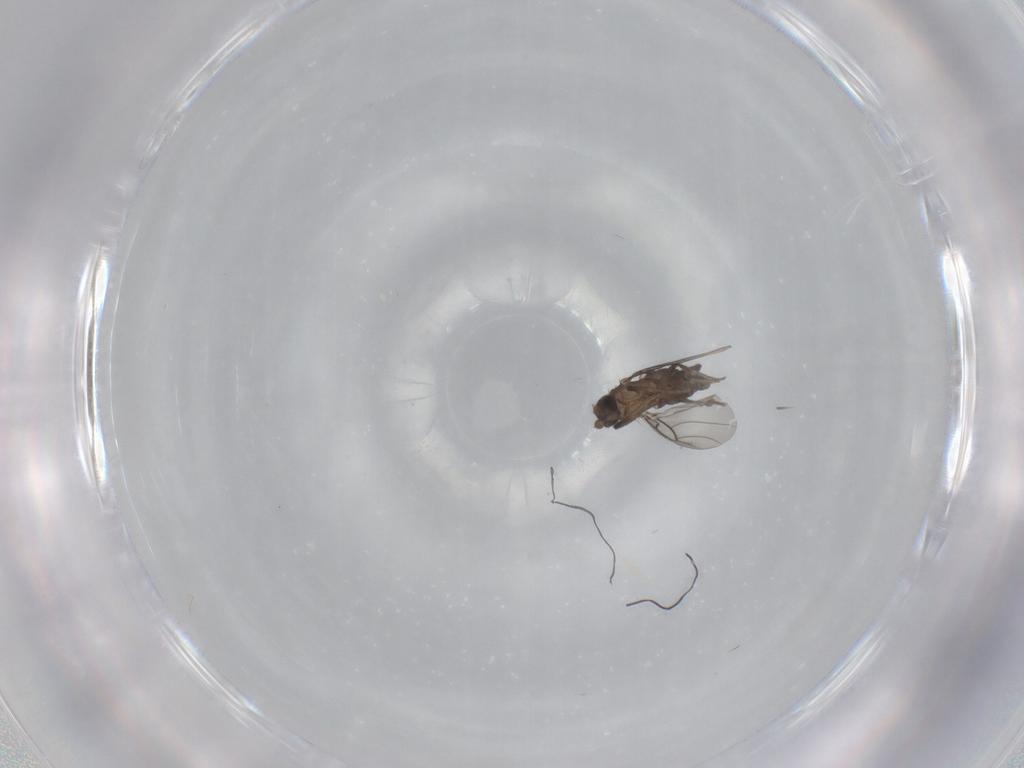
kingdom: Animalia
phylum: Arthropoda
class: Insecta
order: Diptera
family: Phoridae
